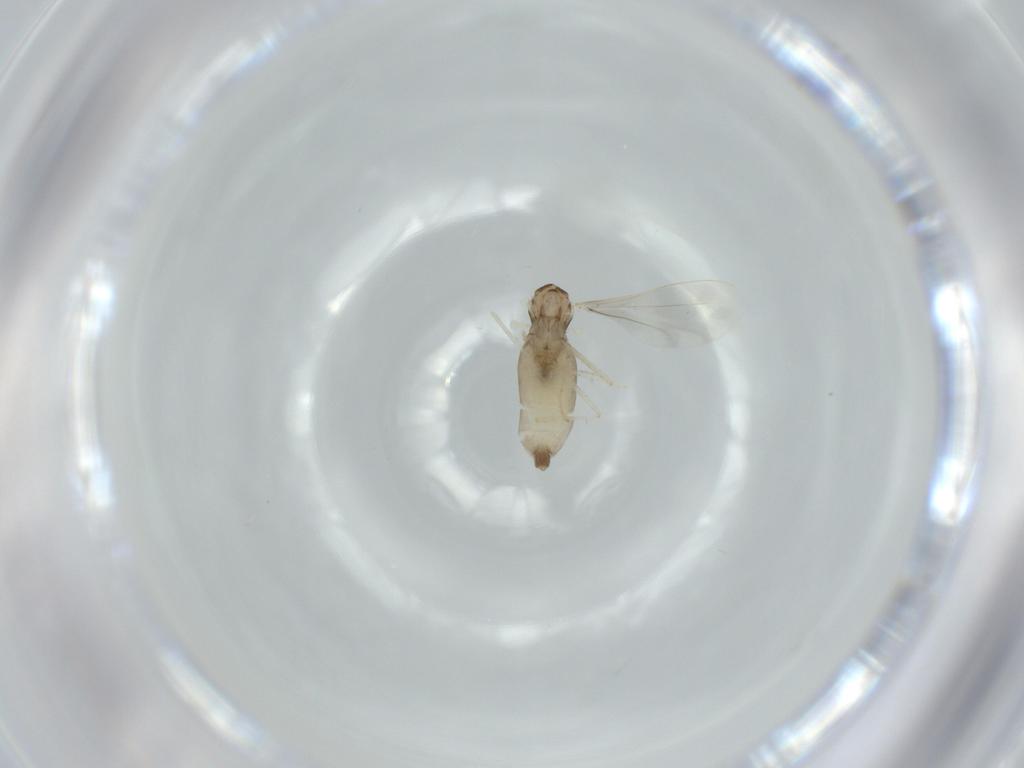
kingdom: Animalia
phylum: Arthropoda
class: Insecta
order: Diptera
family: Cecidomyiidae
